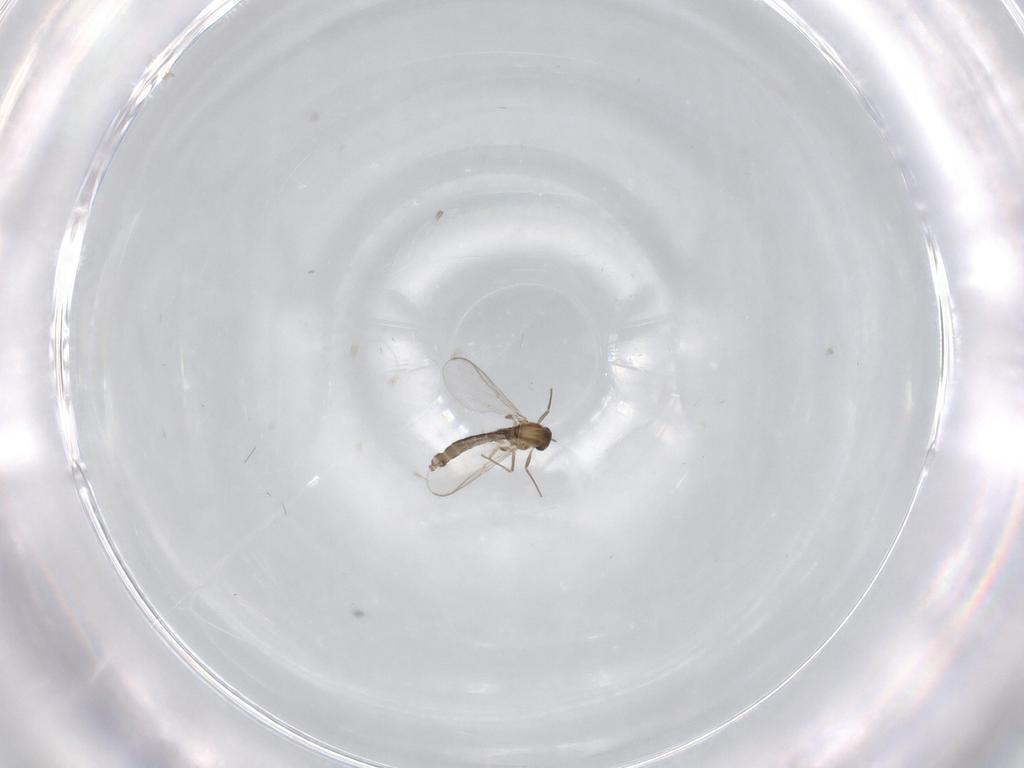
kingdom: Animalia
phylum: Arthropoda
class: Insecta
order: Diptera
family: Chironomidae
